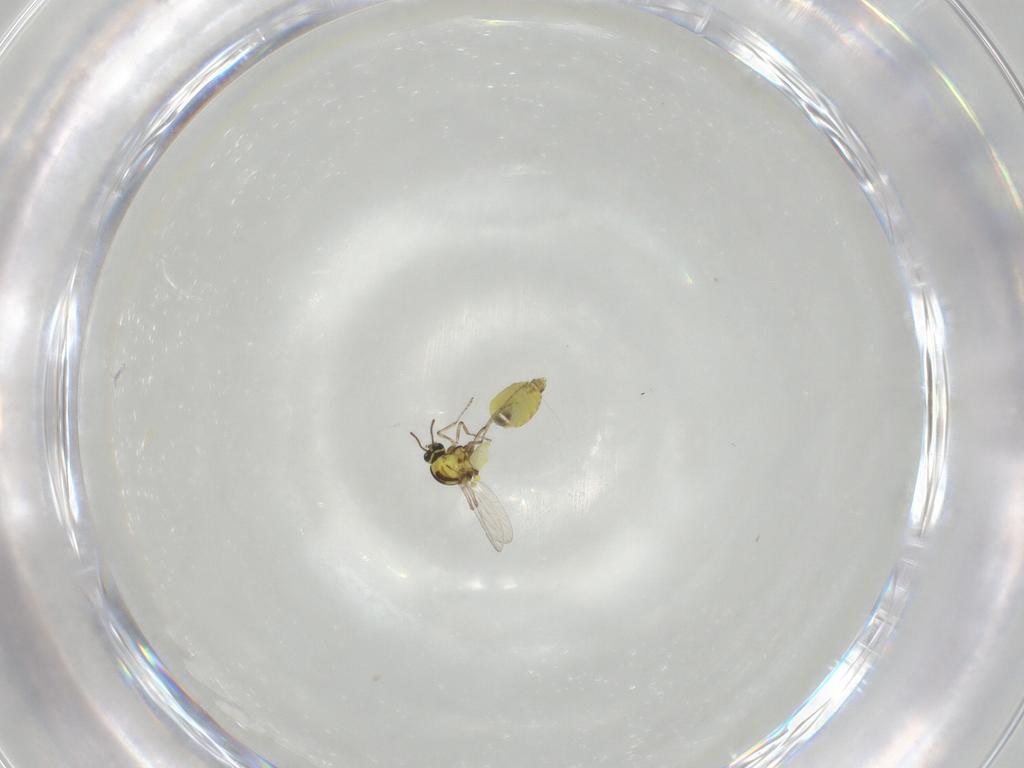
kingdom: Animalia
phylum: Arthropoda
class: Insecta
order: Diptera
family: Ceratopogonidae
